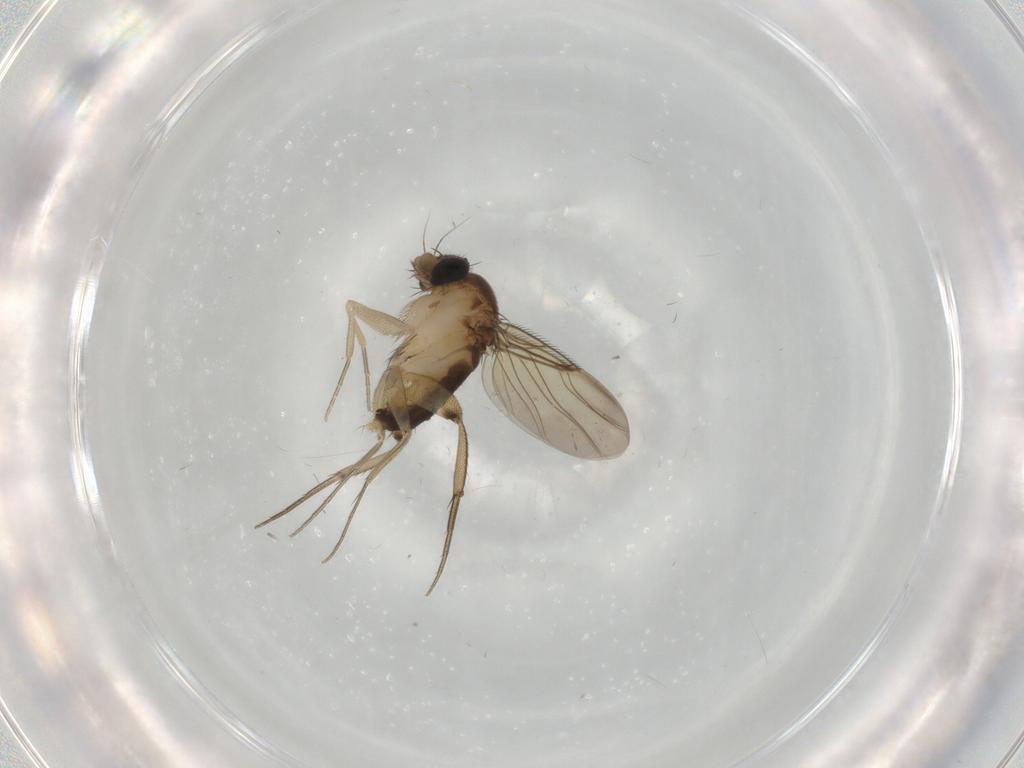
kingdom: Animalia
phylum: Arthropoda
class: Insecta
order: Diptera
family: Phoridae
